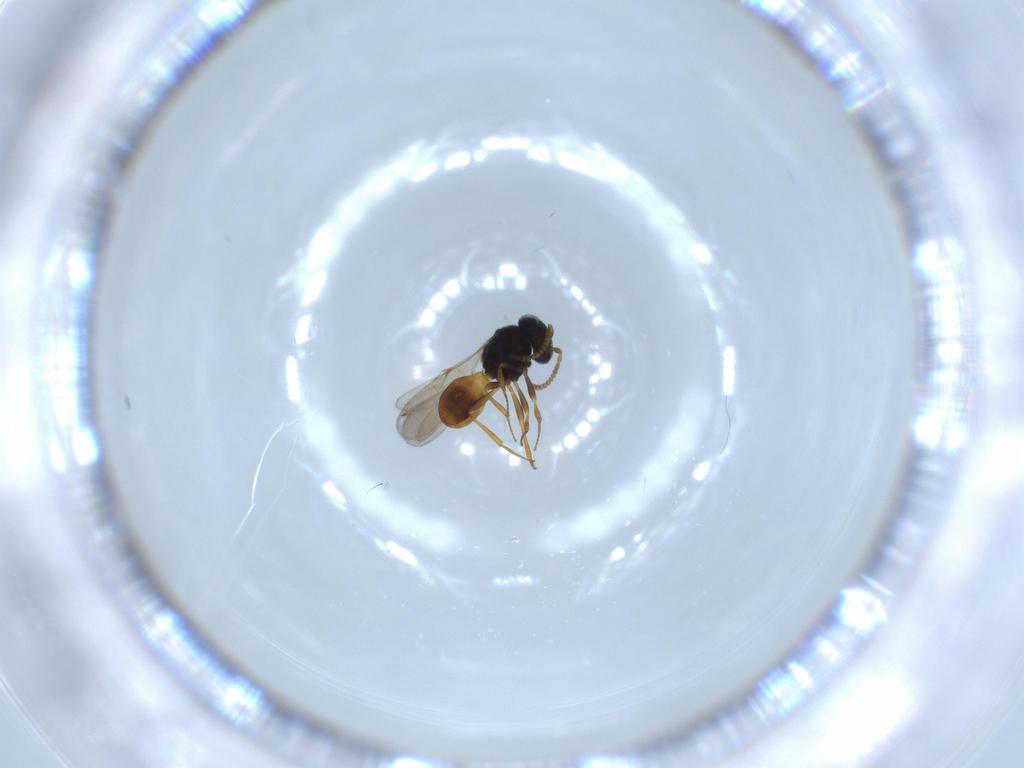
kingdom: Animalia
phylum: Arthropoda
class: Insecta
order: Hymenoptera
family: Scelionidae
